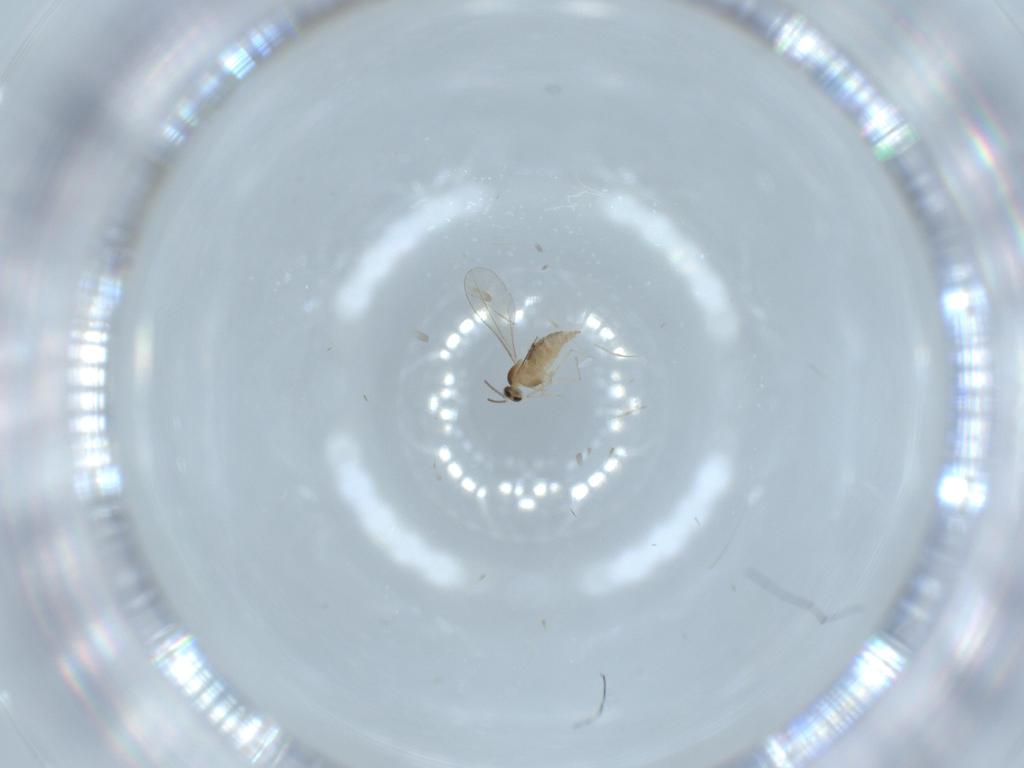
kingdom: Animalia
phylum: Arthropoda
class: Insecta
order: Diptera
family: Cecidomyiidae
